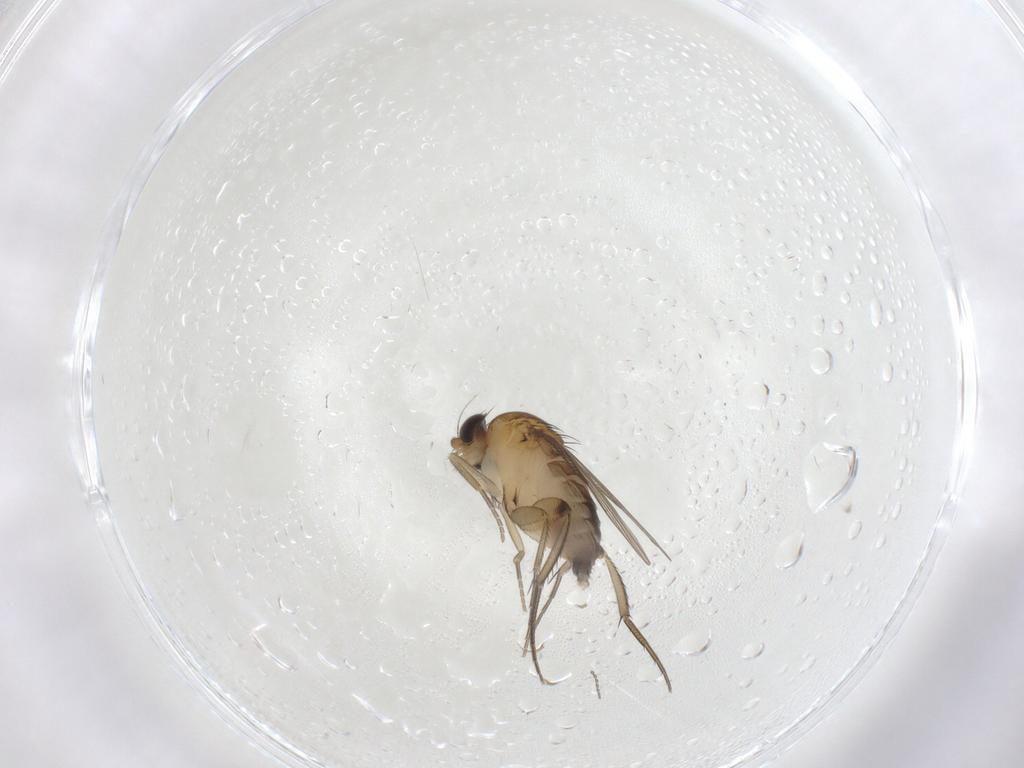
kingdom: Animalia
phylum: Arthropoda
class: Insecta
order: Diptera
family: Phoridae
